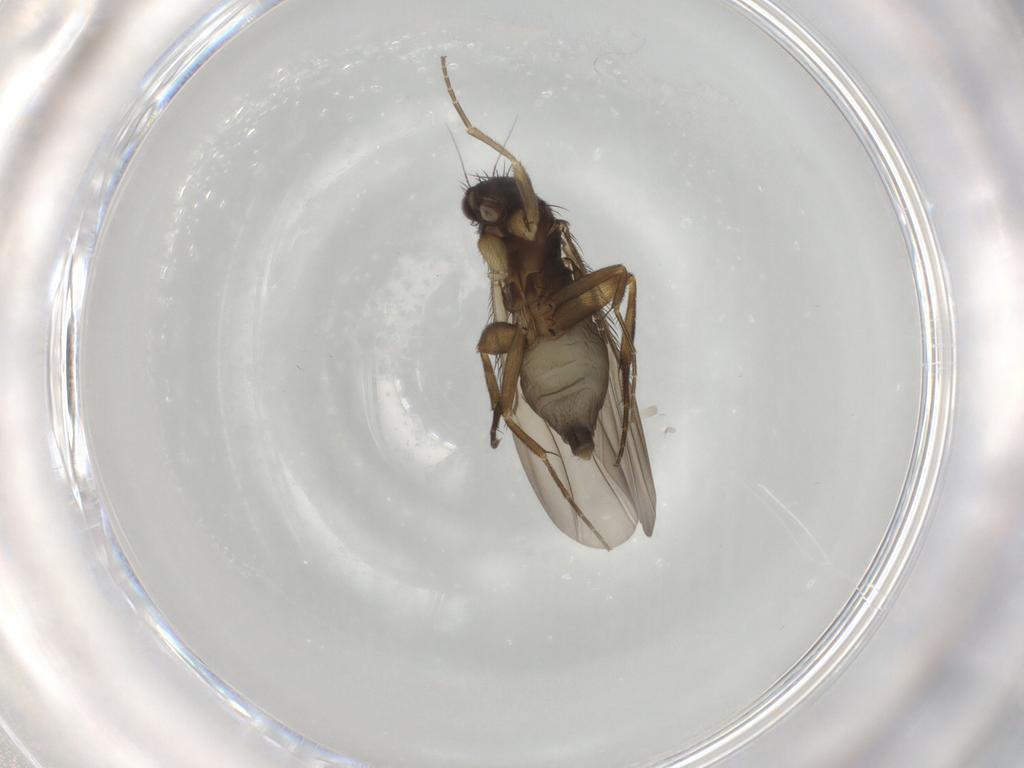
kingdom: Animalia
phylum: Arthropoda
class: Insecta
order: Diptera
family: Phoridae
